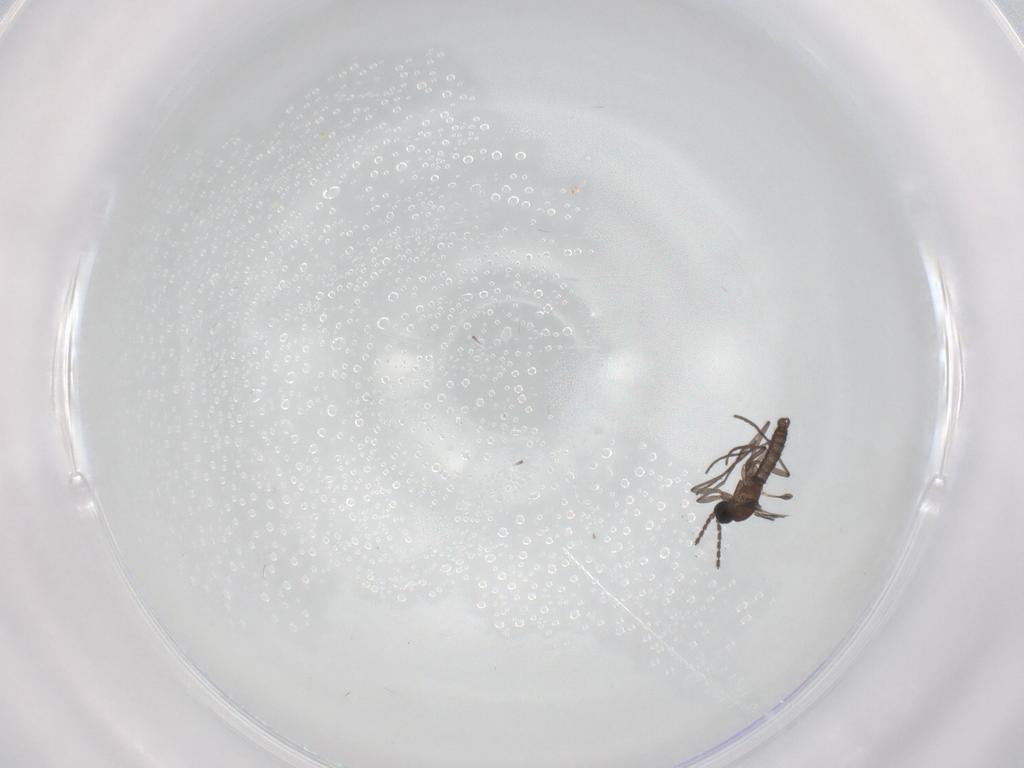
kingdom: Animalia
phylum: Arthropoda
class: Insecta
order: Diptera
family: Sciaridae
